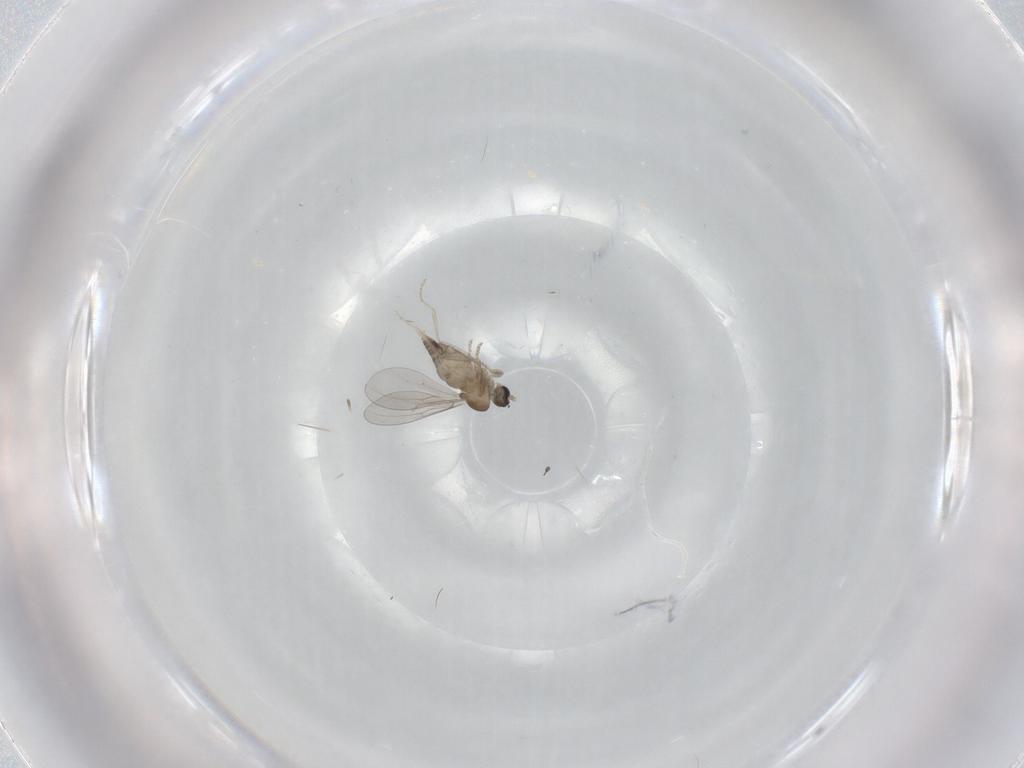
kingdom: Animalia
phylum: Arthropoda
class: Insecta
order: Diptera
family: Cecidomyiidae
